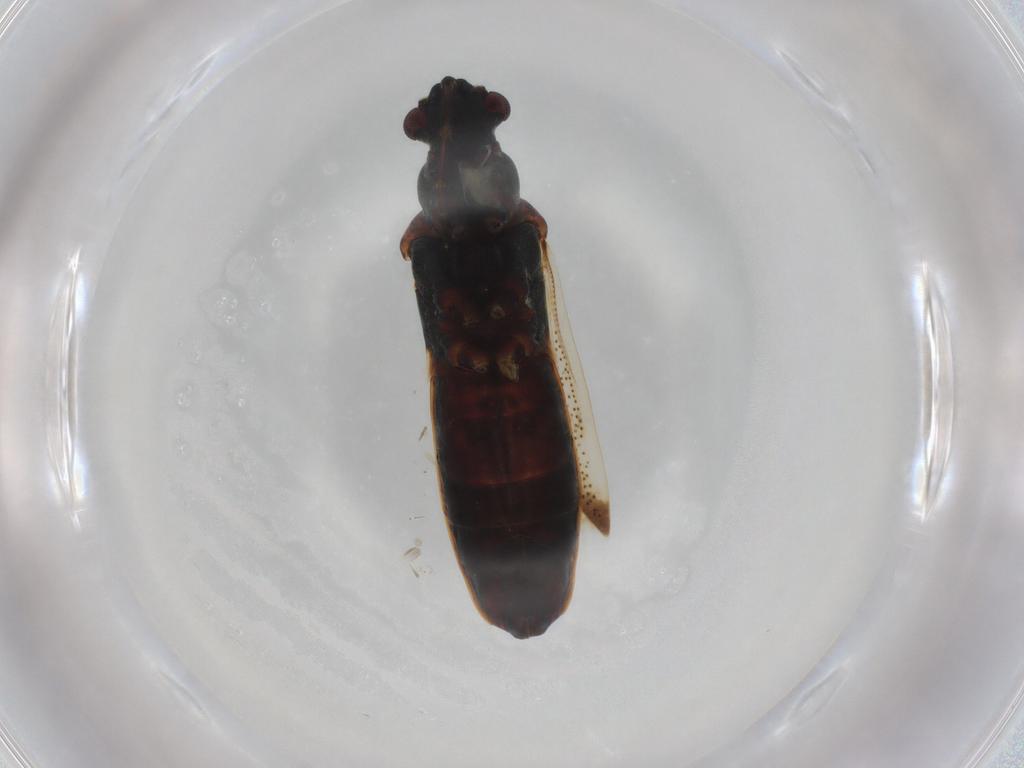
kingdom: Animalia
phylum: Arthropoda
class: Insecta
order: Hemiptera
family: Rhyparochromidae
